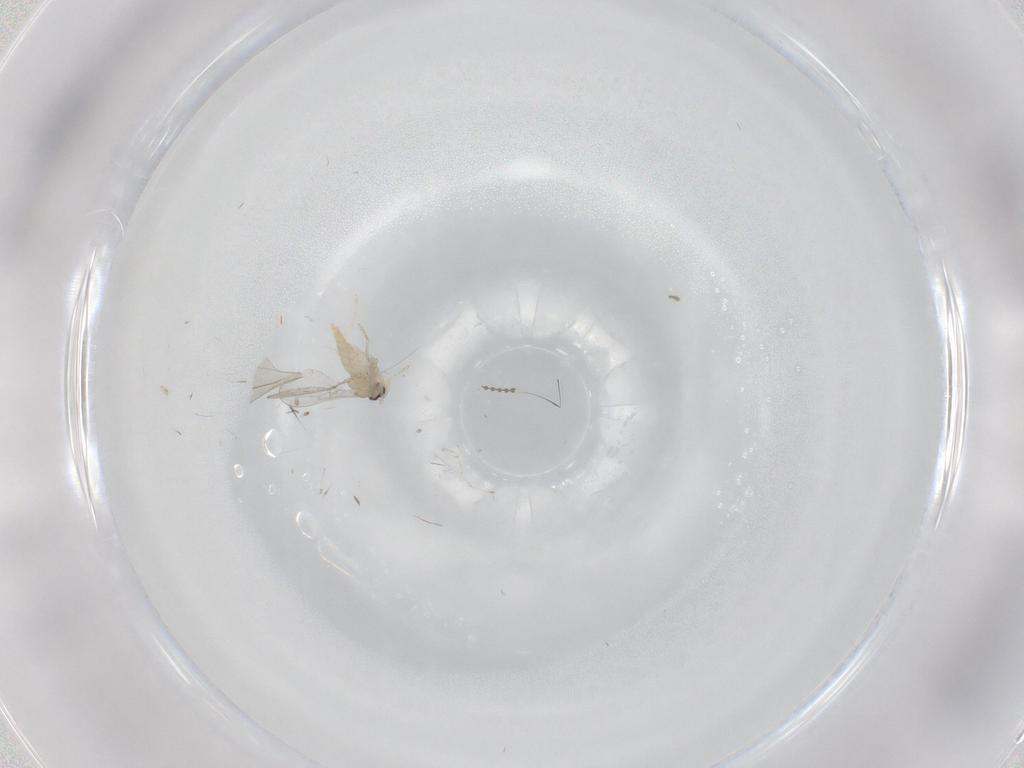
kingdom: Animalia
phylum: Arthropoda
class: Insecta
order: Diptera
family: Cecidomyiidae
